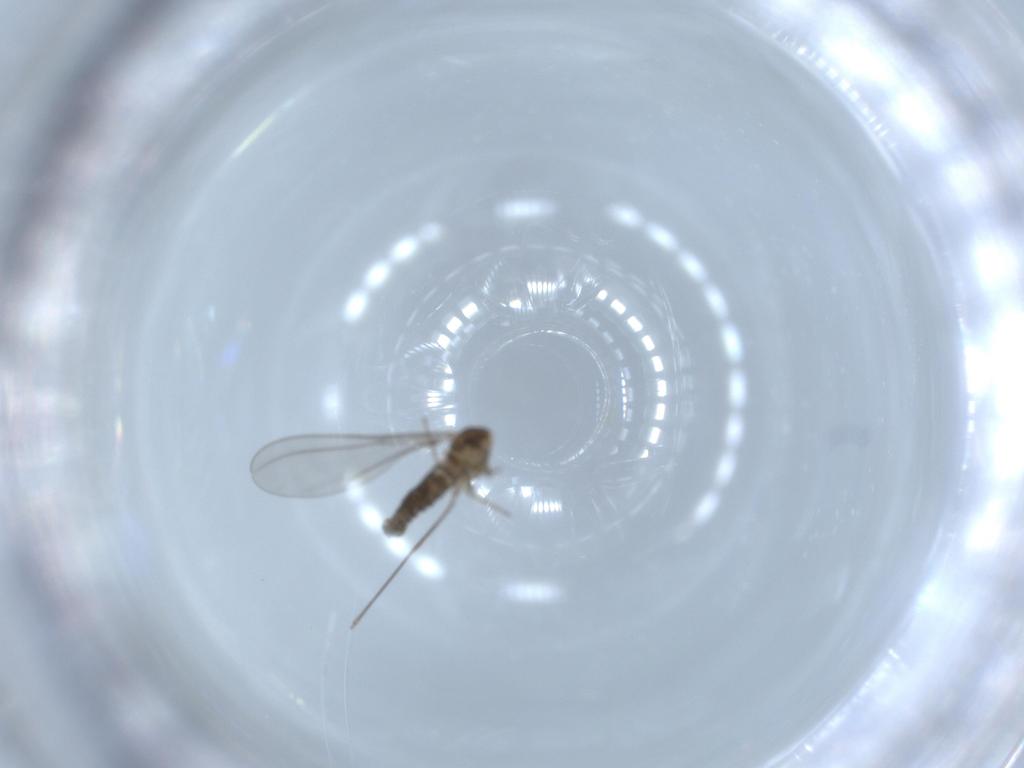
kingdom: Animalia
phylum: Arthropoda
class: Insecta
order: Diptera
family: Cecidomyiidae
